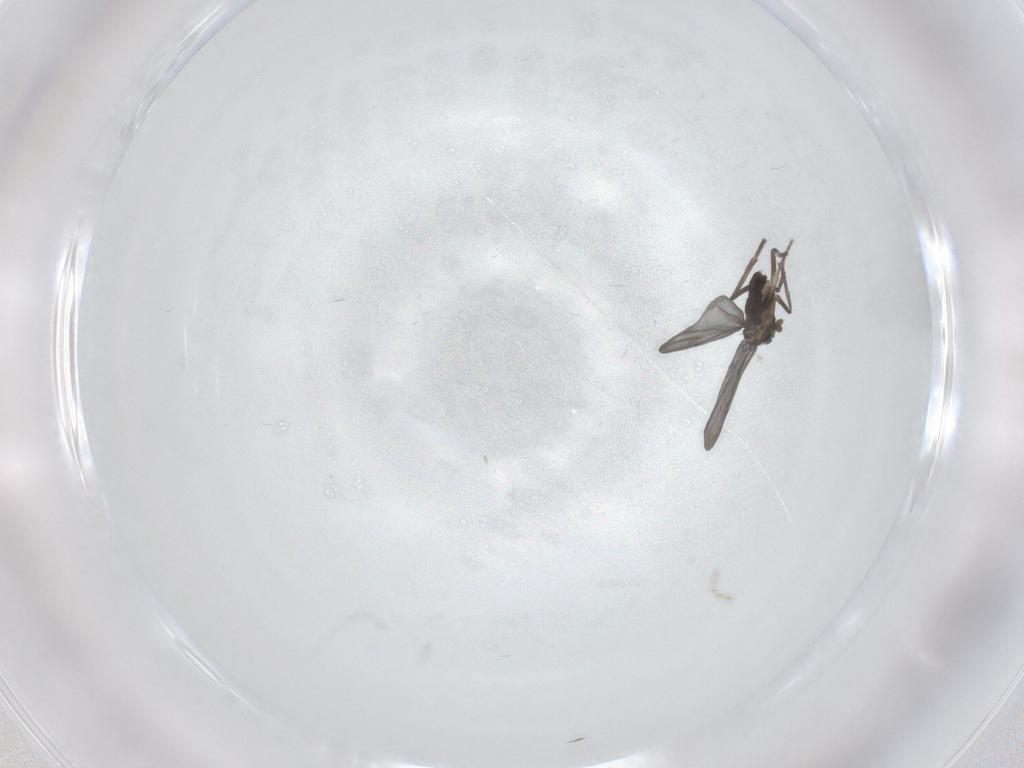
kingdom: Animalia
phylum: Arthropoda
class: Insecta
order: Diptera
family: Phoridae
